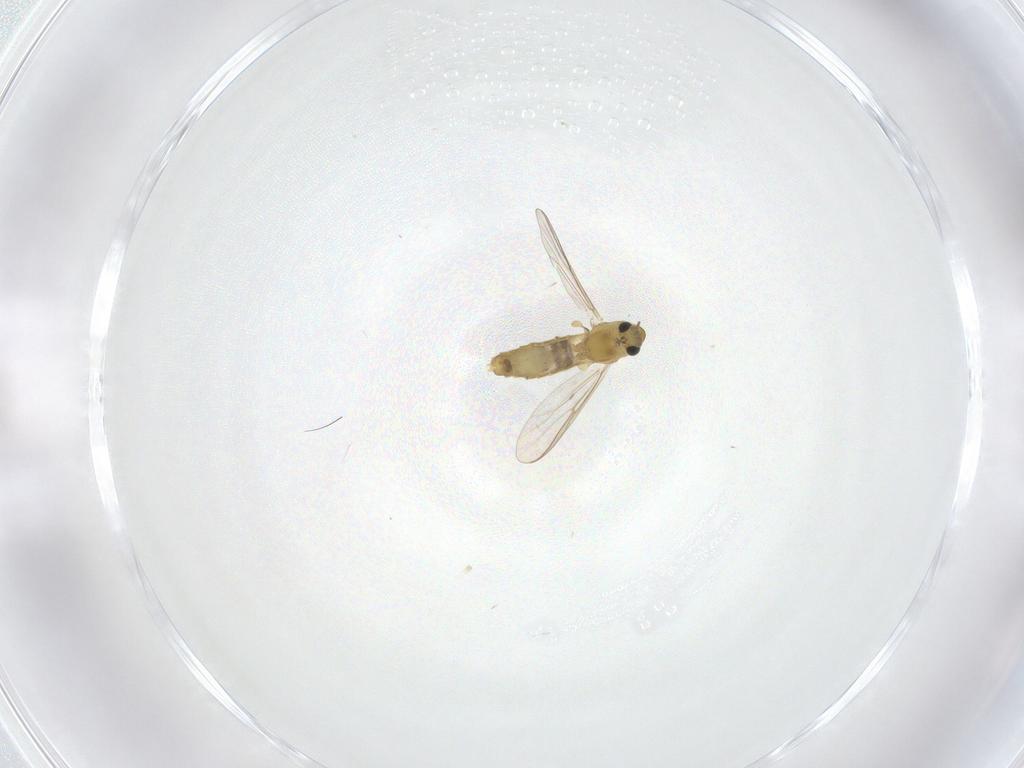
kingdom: Animalia
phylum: Arthropoda
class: Insecta
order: Diptera
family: Chironomidae
